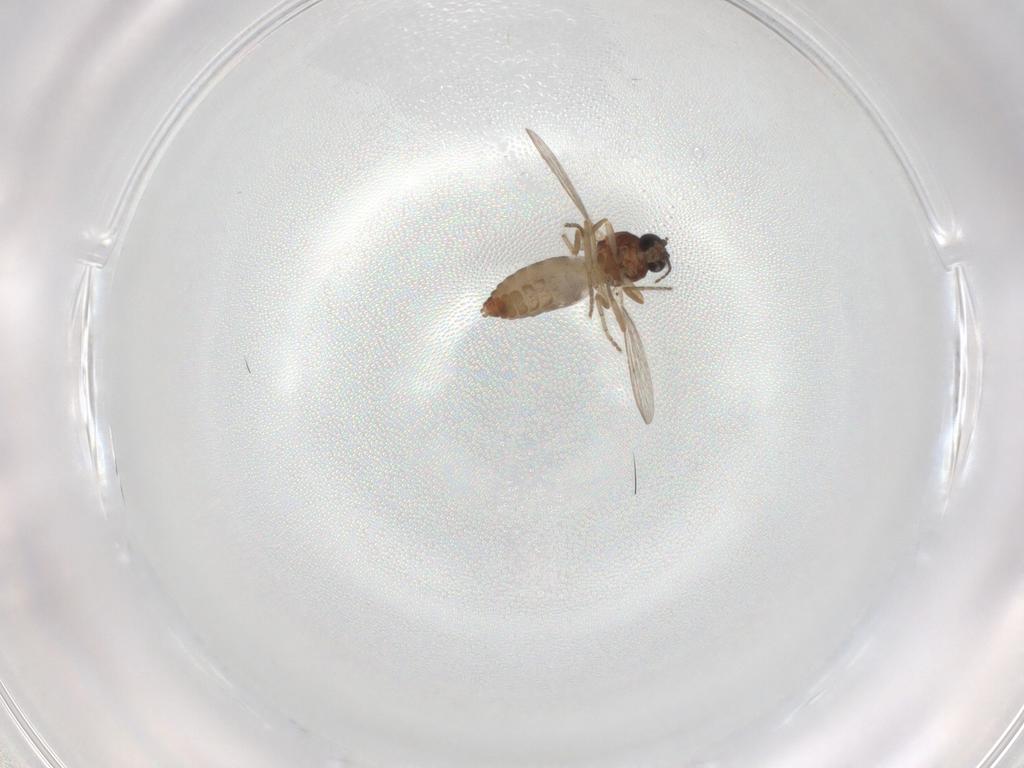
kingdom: Animalia
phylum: Arthropoda
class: Insecta
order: Diptera
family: Ceratopogonidae
